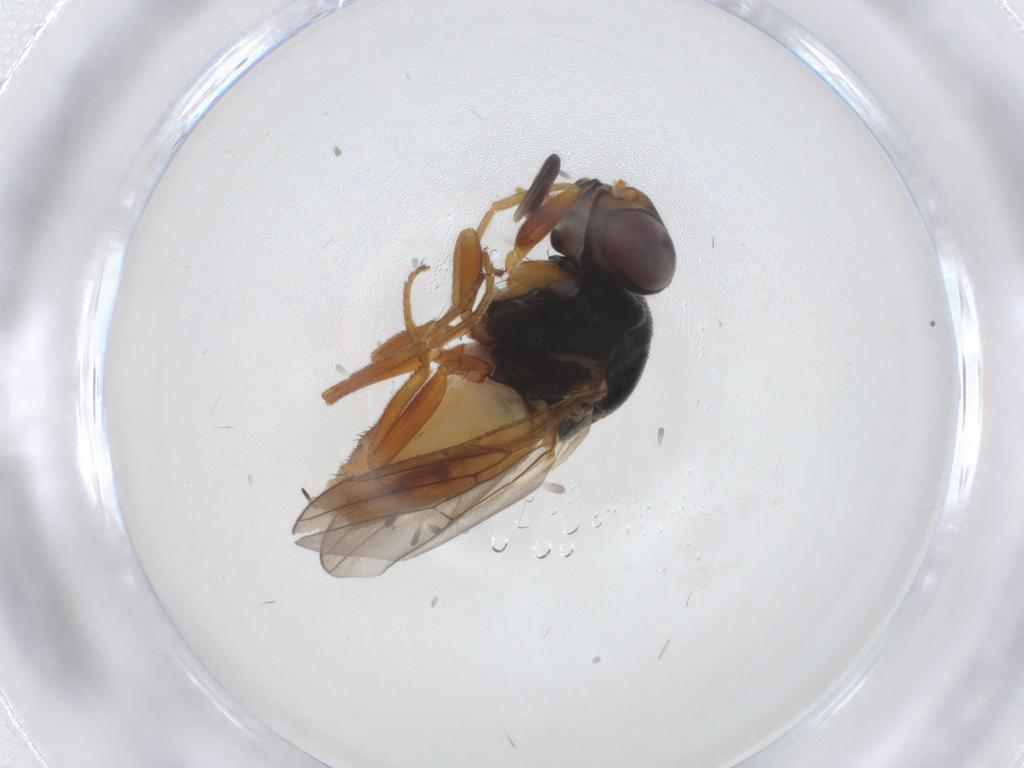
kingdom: Animalia
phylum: Arthropoda
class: Insecta
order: Diptera
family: Chloropidae
